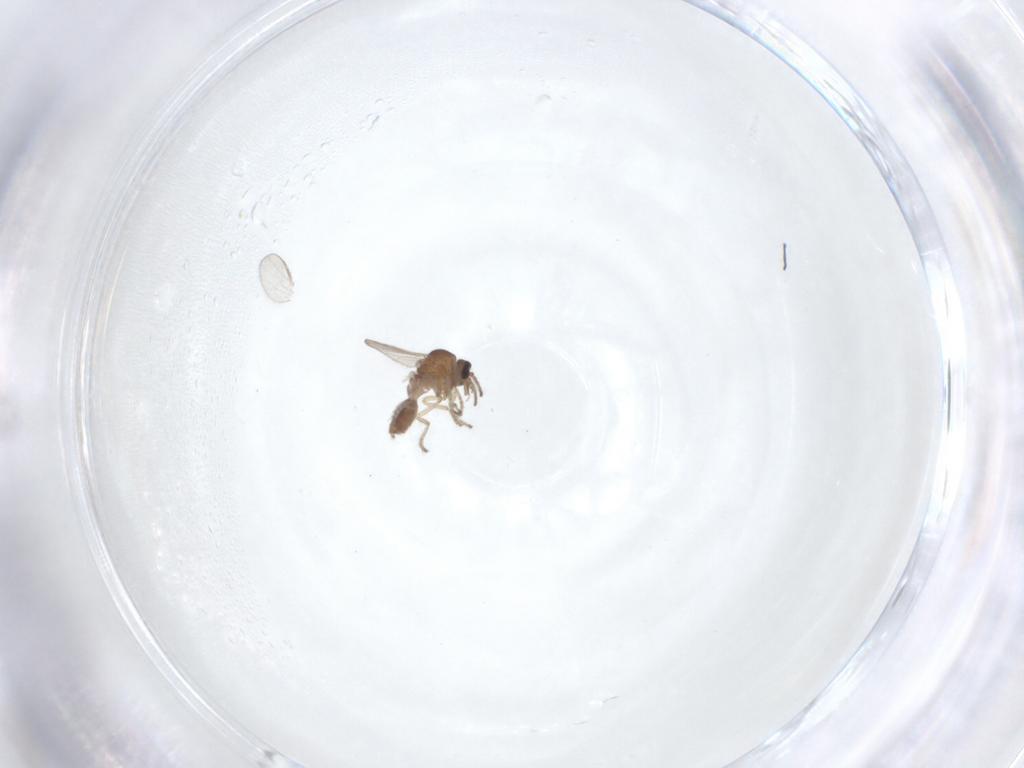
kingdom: Animalia
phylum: Arthropoda
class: Insecta
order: Diptera
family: Ceratopogonidae
